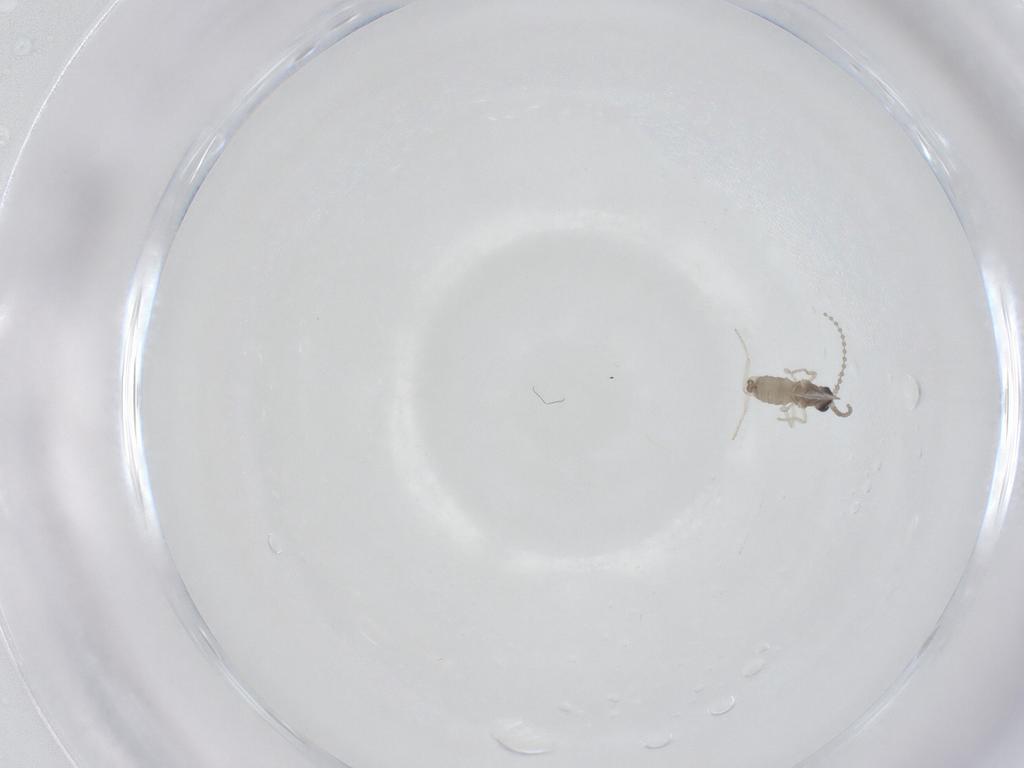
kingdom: Animalia
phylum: Arthropoda
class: Insecta
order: Diptera
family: Cecidomyiidae
